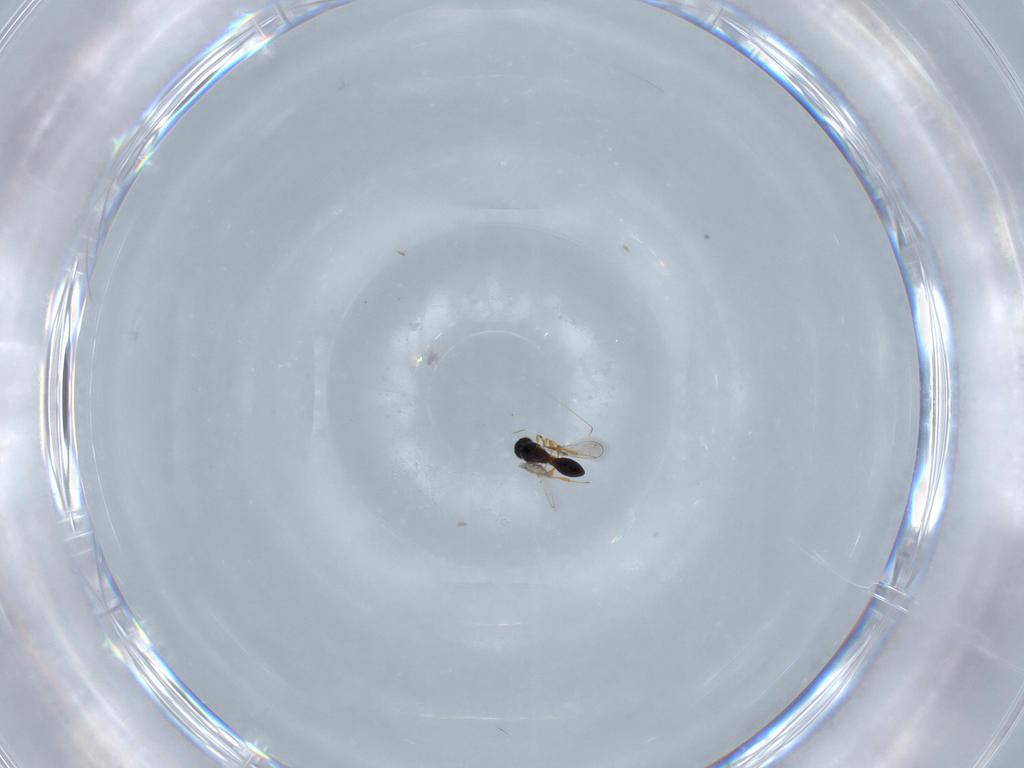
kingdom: Animalia
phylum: Arthropoda
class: Insecta
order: Hymenoptera
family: Platygastridae
